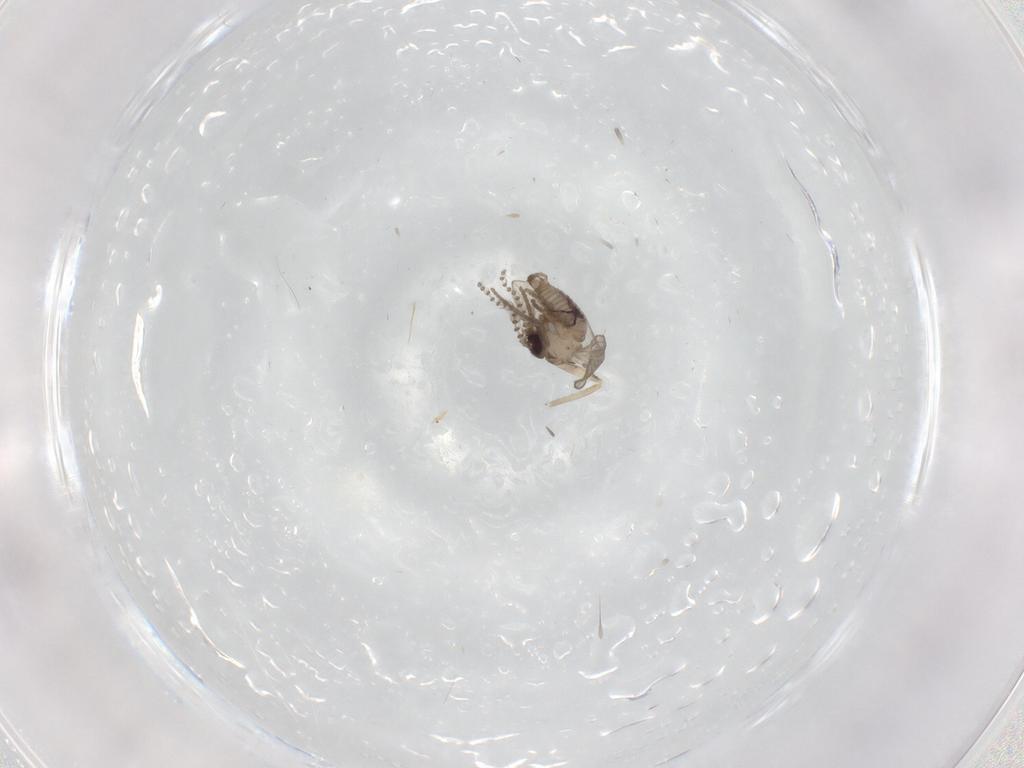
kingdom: Animalia
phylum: Arthropoda
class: Insecta
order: Diptera
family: Psychodidae
